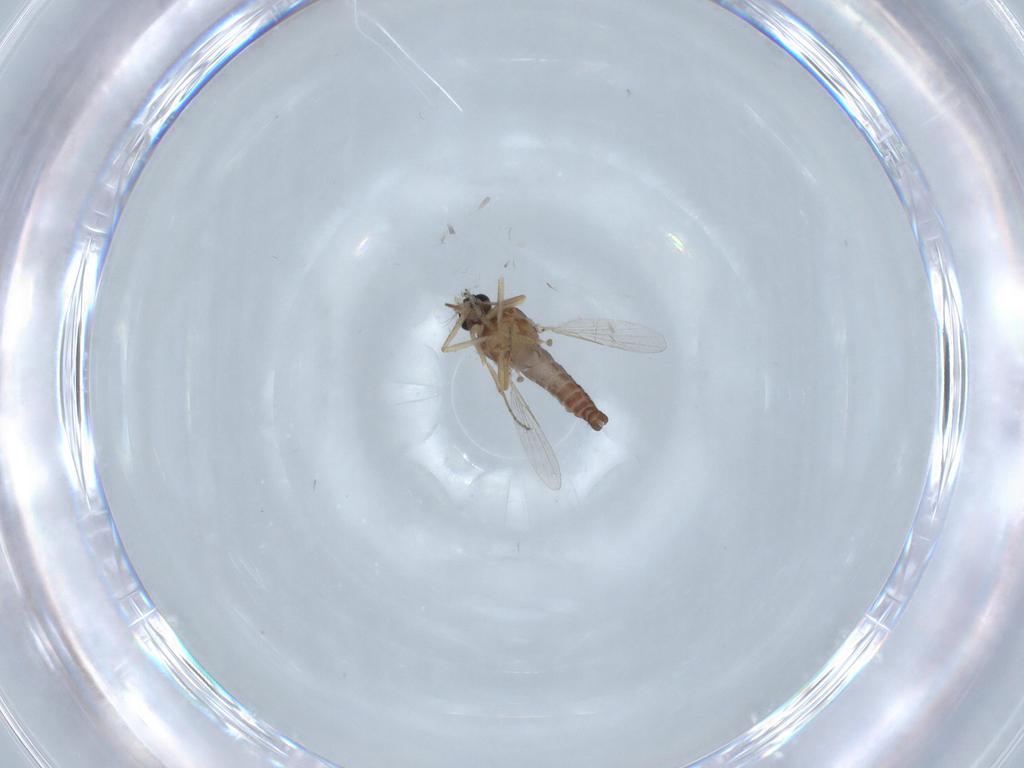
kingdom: Animalia
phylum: Arthropoda
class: Insecta
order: Diptera
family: Ceratopogonidae
